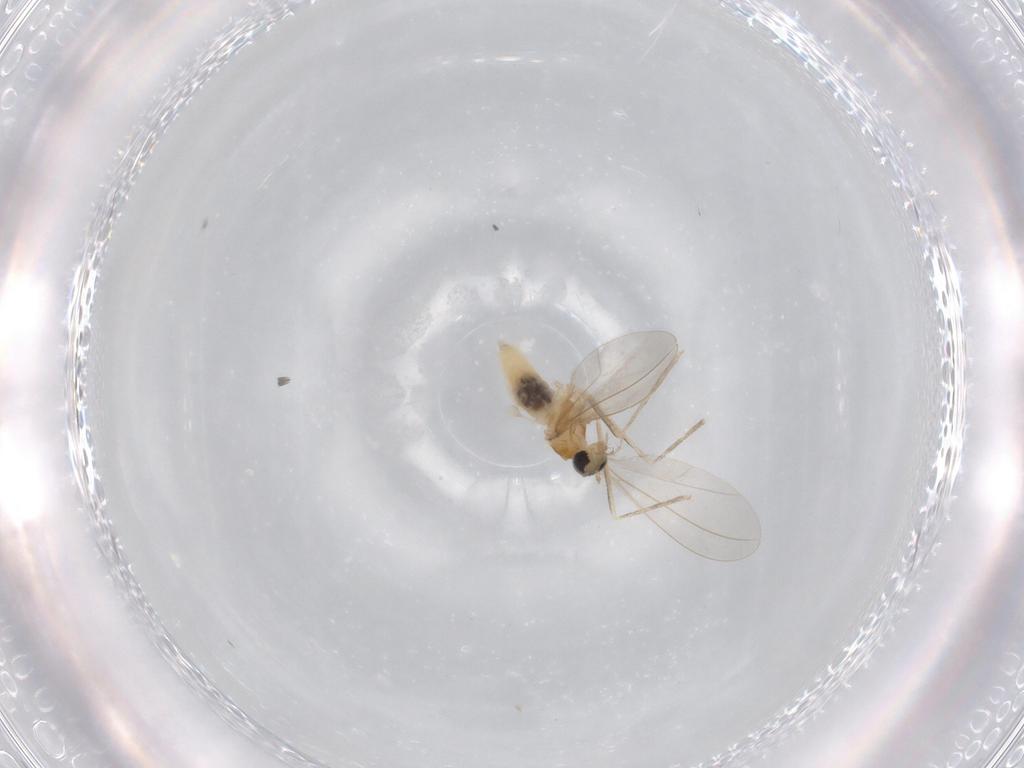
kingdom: Animalia
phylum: Arthropoda
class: Insecta
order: Diptera
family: Cecidomyiidae
